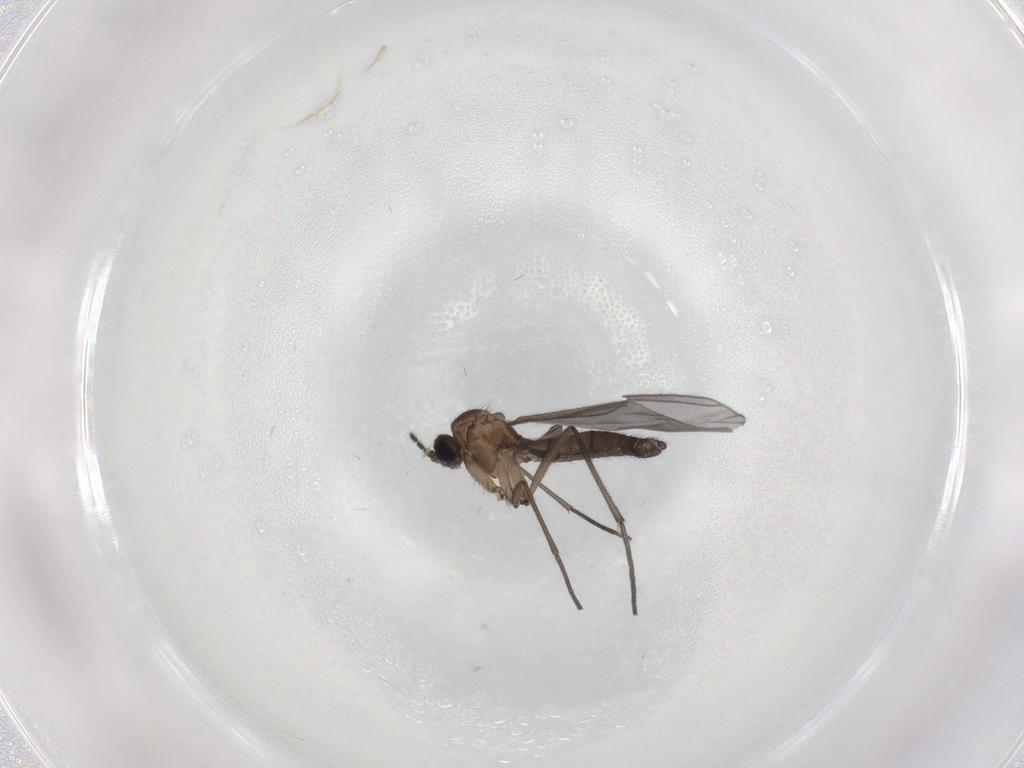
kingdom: Animalia
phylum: Arthropoda
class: Insecta
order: Diptera
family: Sciaridae
